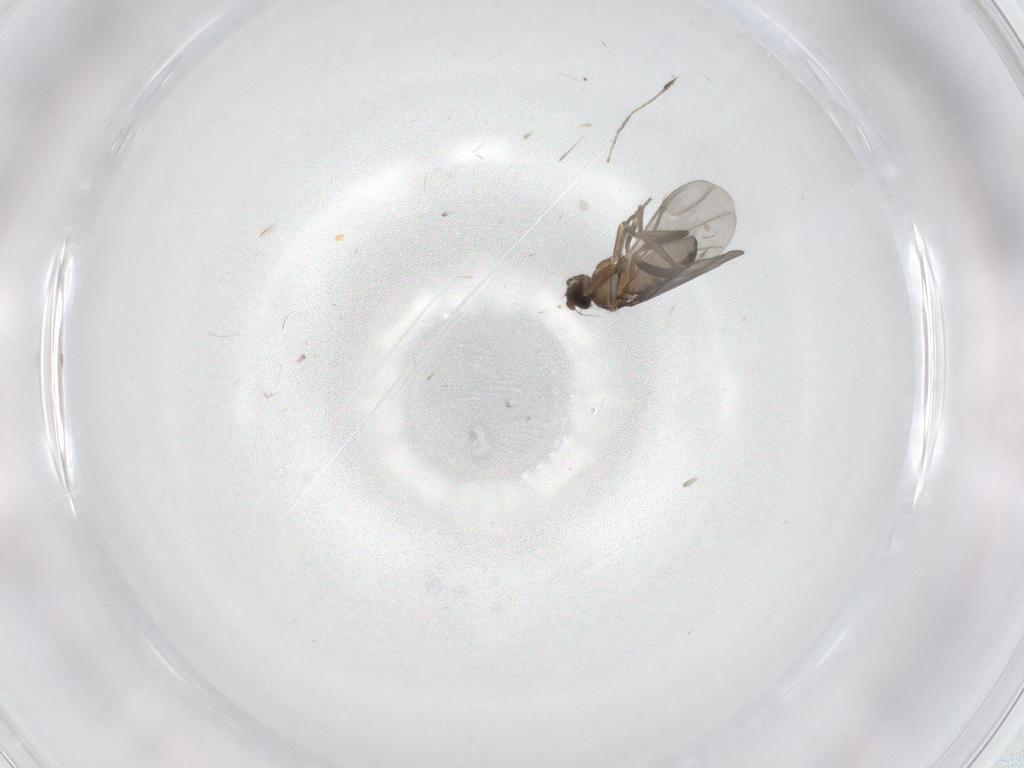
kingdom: Animalia
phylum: Arthropoda
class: Insecta
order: Diptera
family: Phoridae
